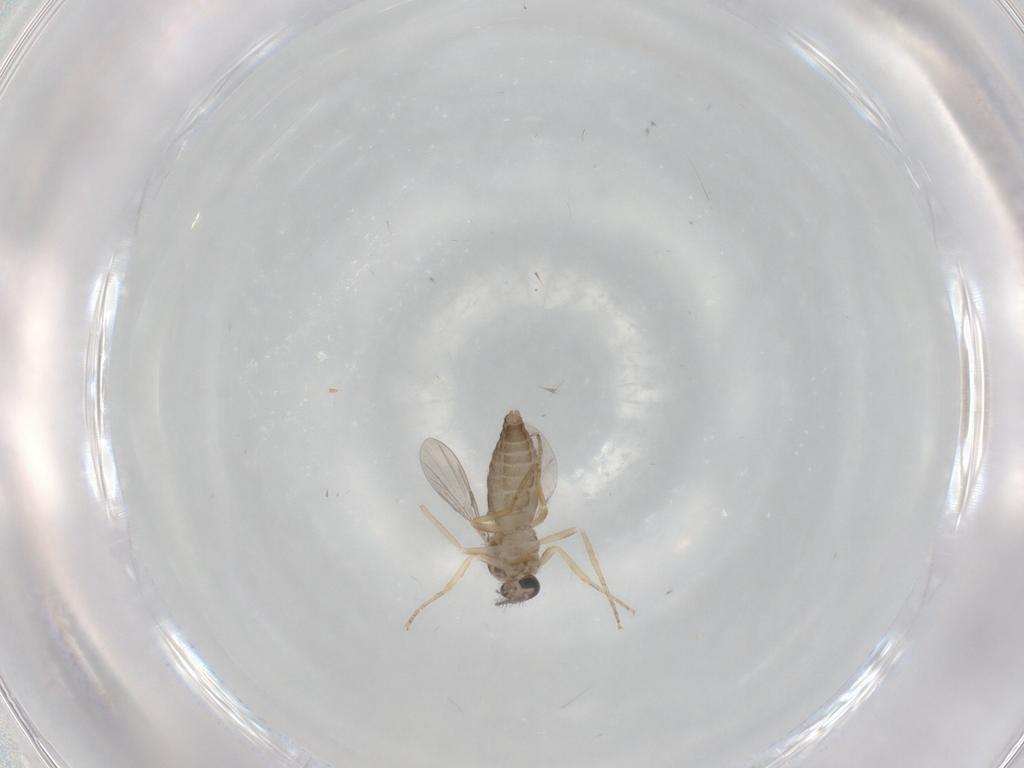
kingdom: Animalia
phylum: Arthropoda
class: Insecta
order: Diptera
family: Ceratopogonidae
